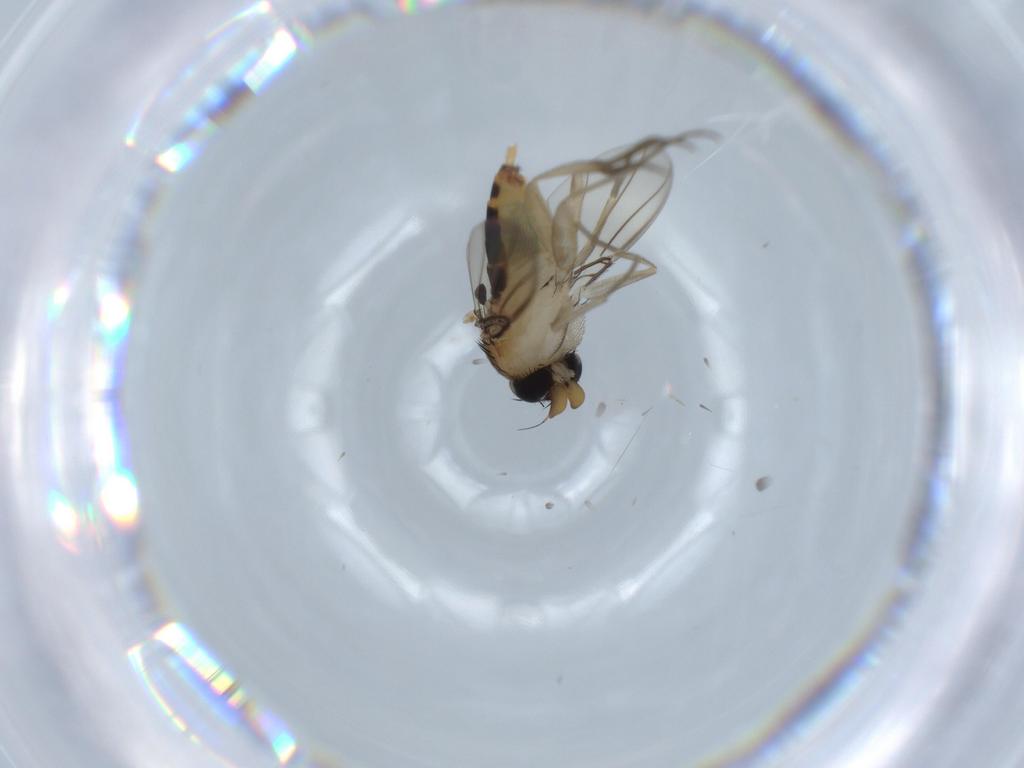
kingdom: Animalia
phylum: Arthropoda
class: Insecta
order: Diptera
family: Phoridae
